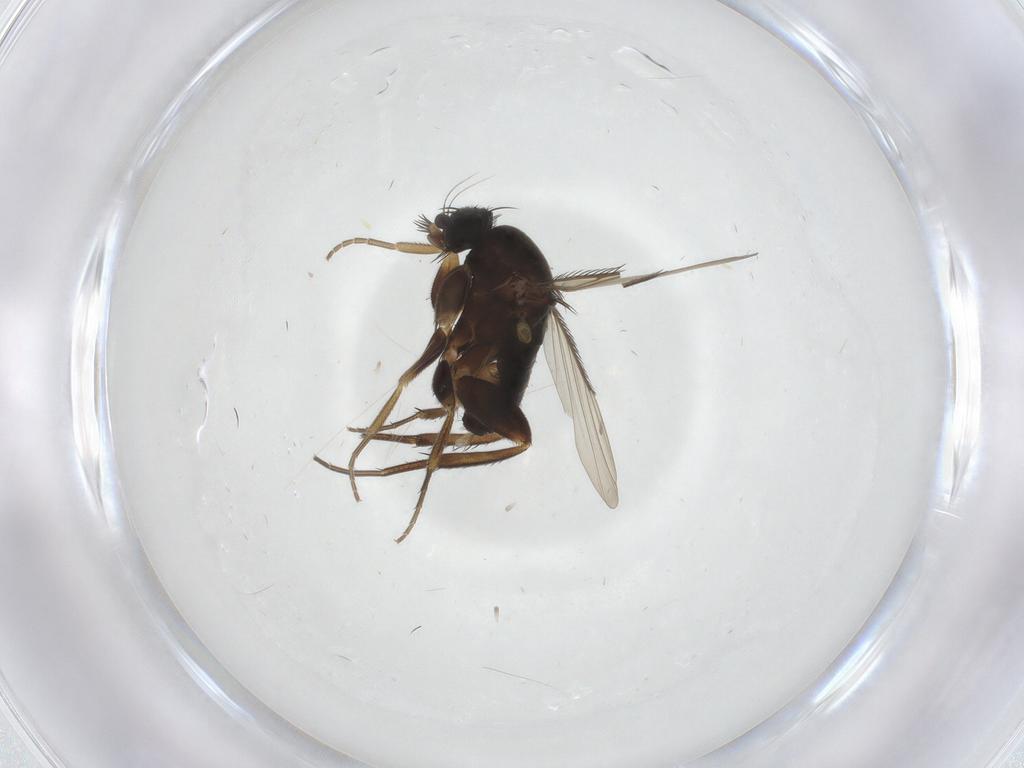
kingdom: Animalia
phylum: Arthropoda
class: Insecta
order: Diptera
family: Phoridae
